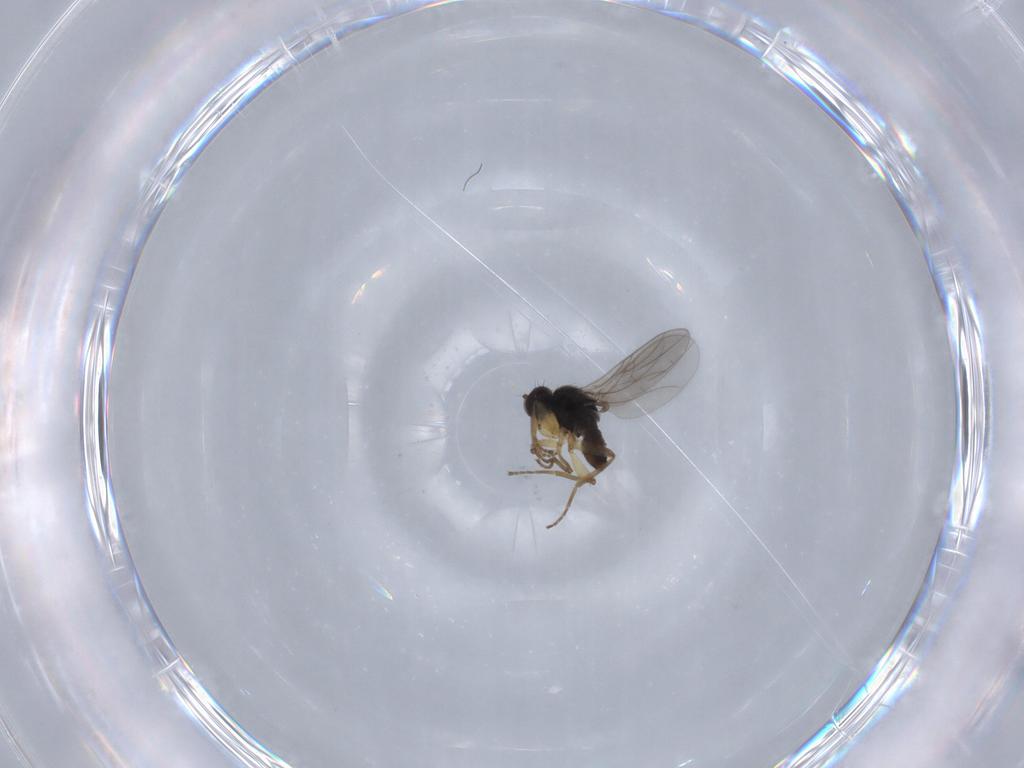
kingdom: Animalia
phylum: Arthropoda
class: Insecta
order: Diptera
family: Hybotidae
